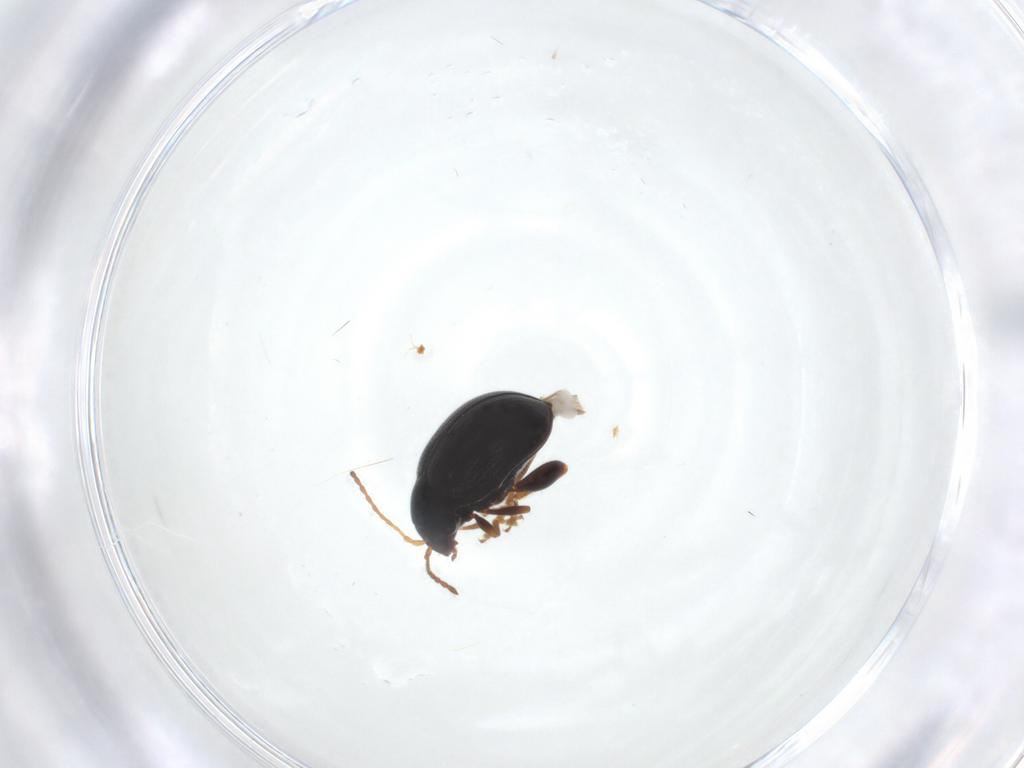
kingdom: Animalia
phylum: Arthropoda
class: Insecta
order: Coleoptera
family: Chrysomelidae
